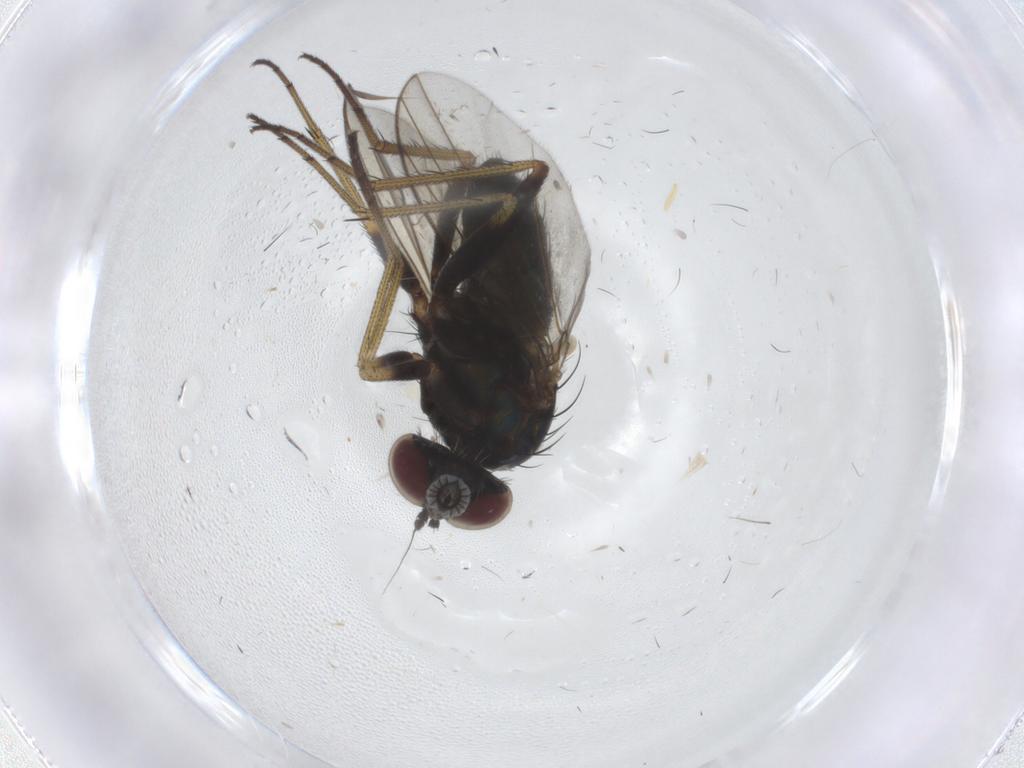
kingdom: Animalia
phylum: Arthropoda
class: Insecta
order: Diptera
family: Dolichopodidae
